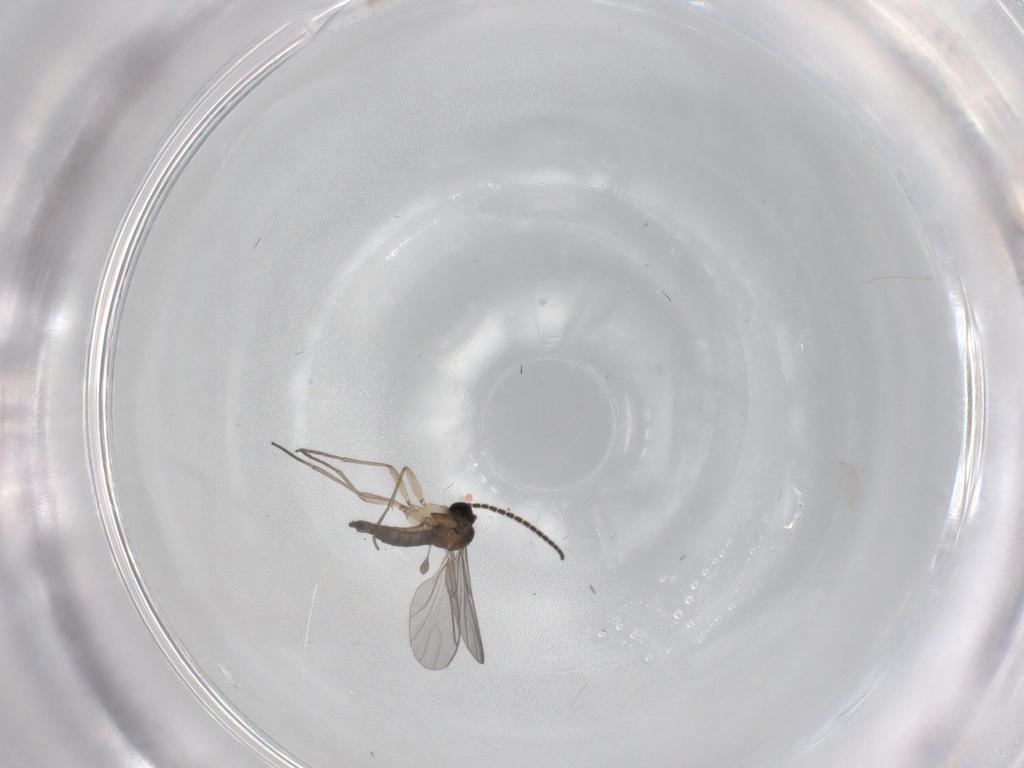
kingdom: Animalia
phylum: Arthropoda
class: Insecta
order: Diptera
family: Sciaridae
